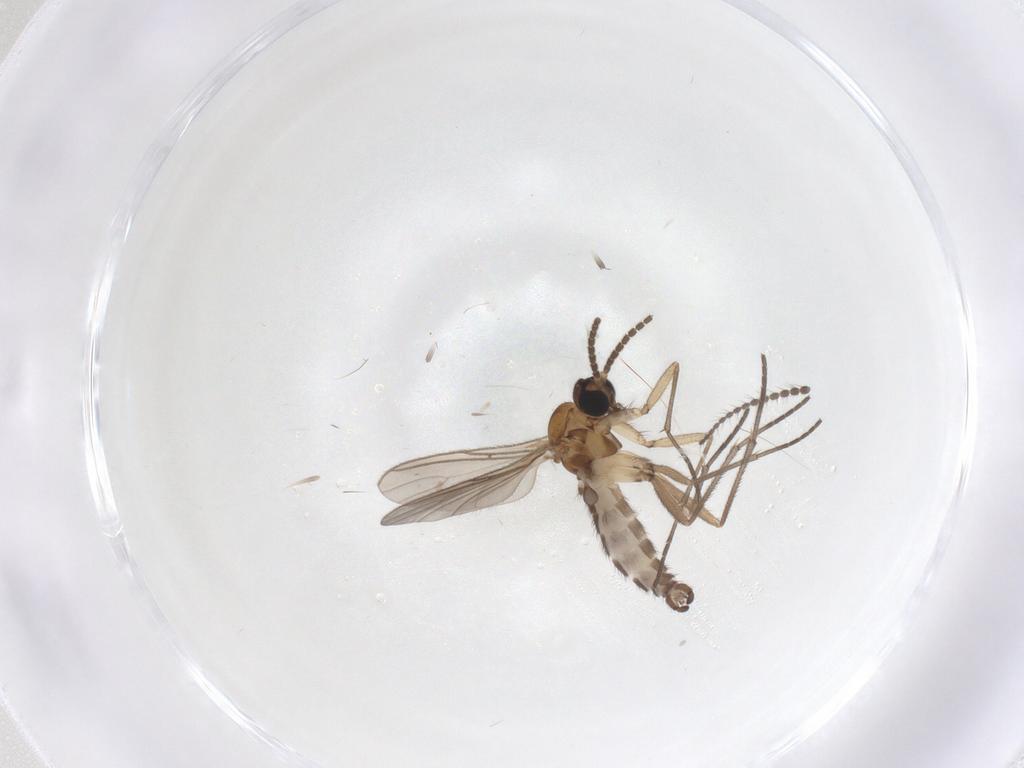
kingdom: Animalia
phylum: Arthropoda
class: Insecta
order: Diptera
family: Limoniidae
